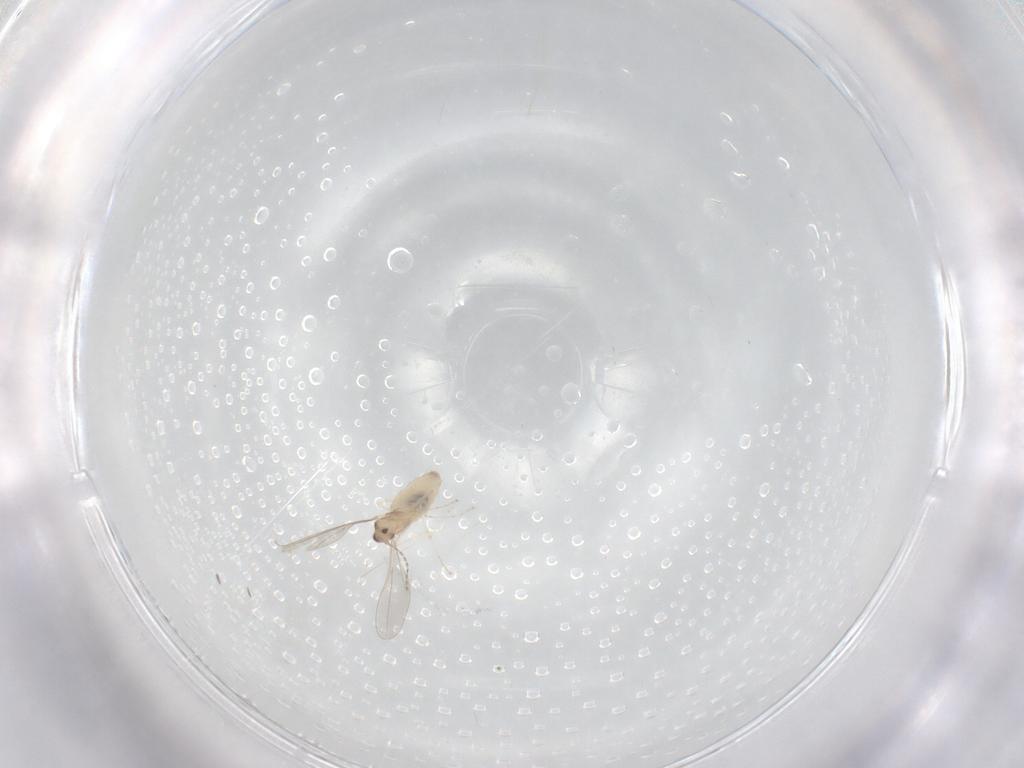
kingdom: Animalia
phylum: Arthropoda
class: Insecta
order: Diptera
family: Cecidomyiidae
